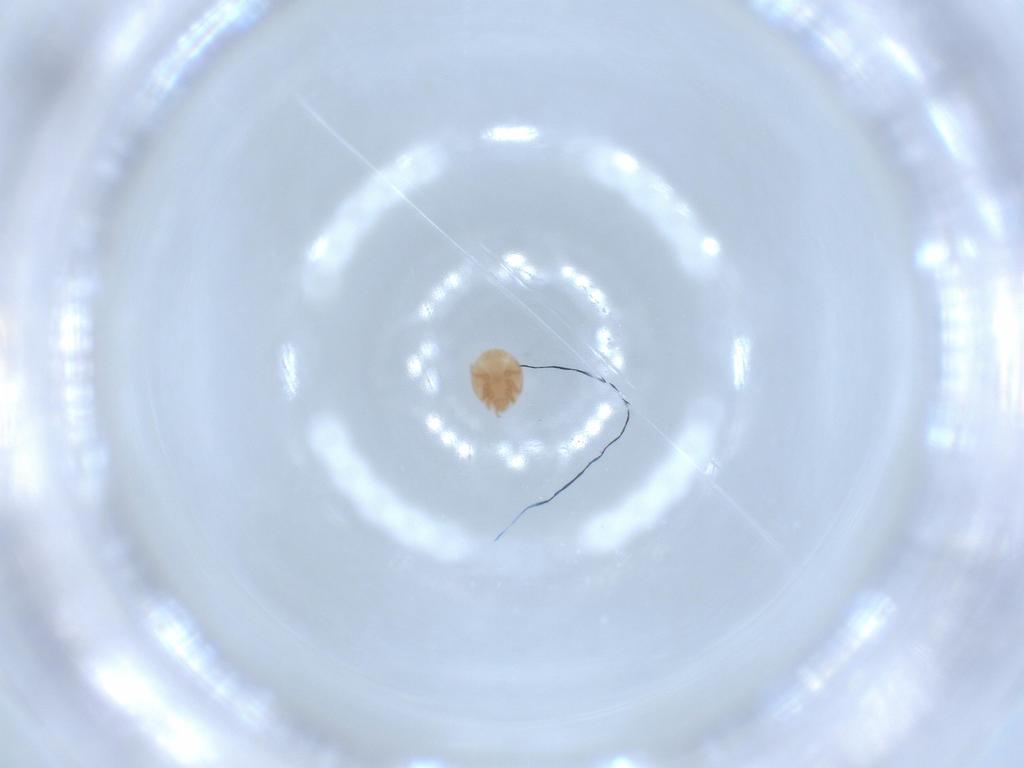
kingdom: Animalia
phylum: Arthropoda
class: Arachnida
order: Mesostigmata
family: Trematuridae
